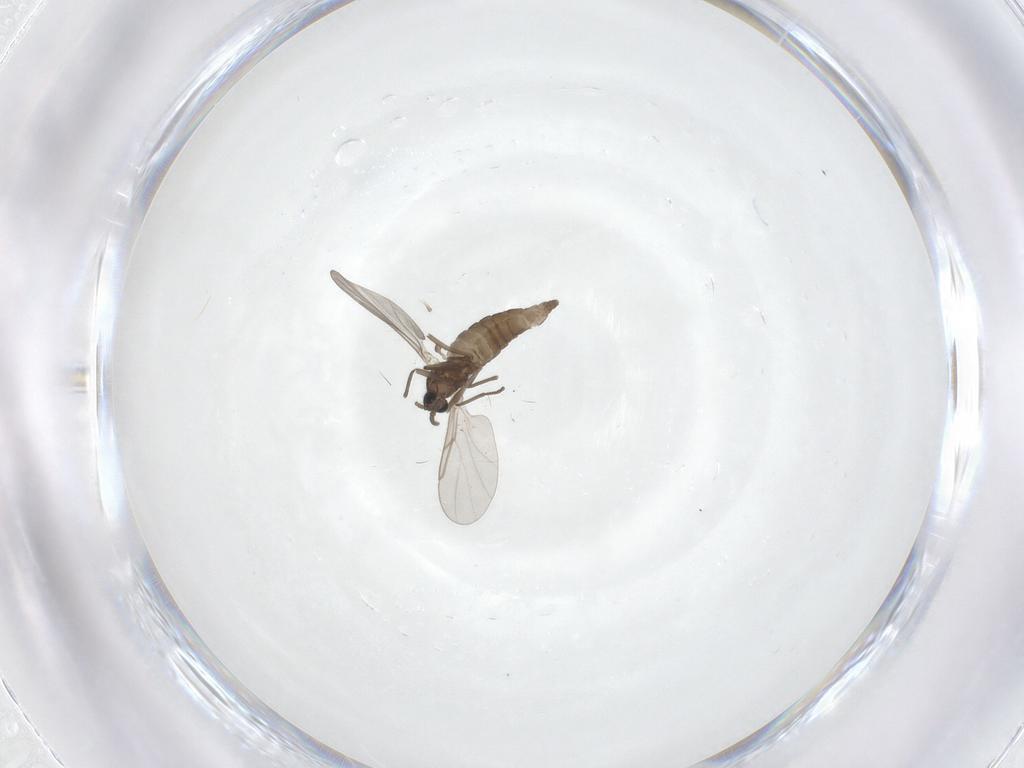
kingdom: Animalia
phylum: Arthropoda
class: Insecta
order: Diptera
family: Cecidomyiidae
